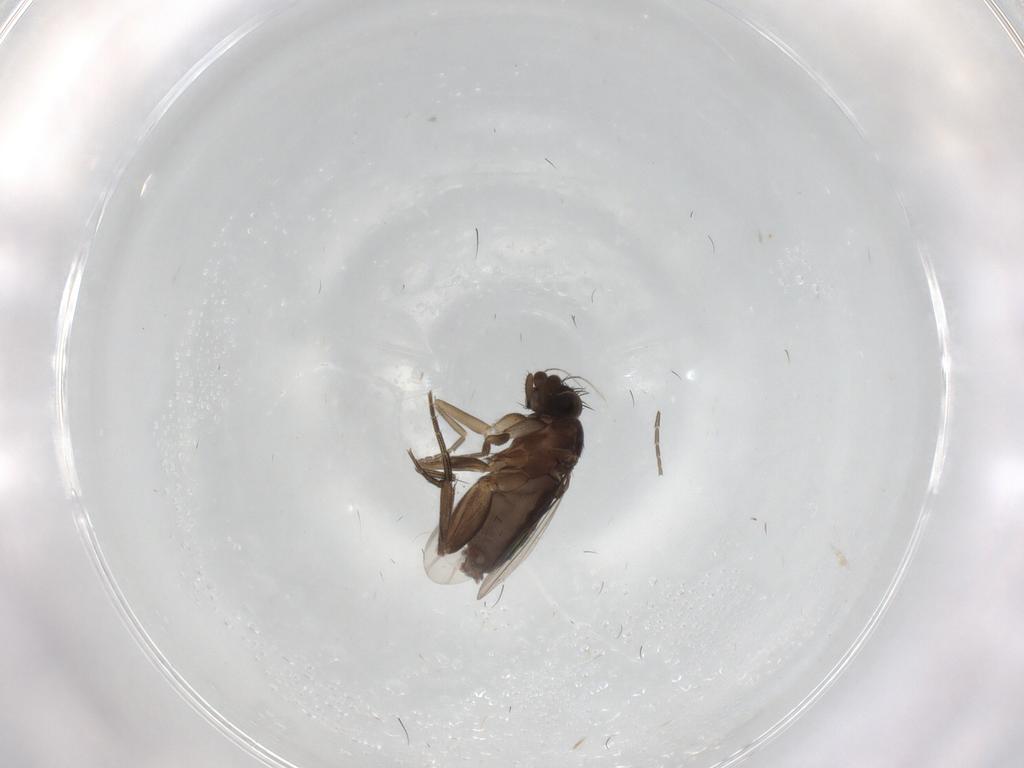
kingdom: Animalia
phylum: Arthropoda
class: Insecta
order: Diptera
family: Phoridae
